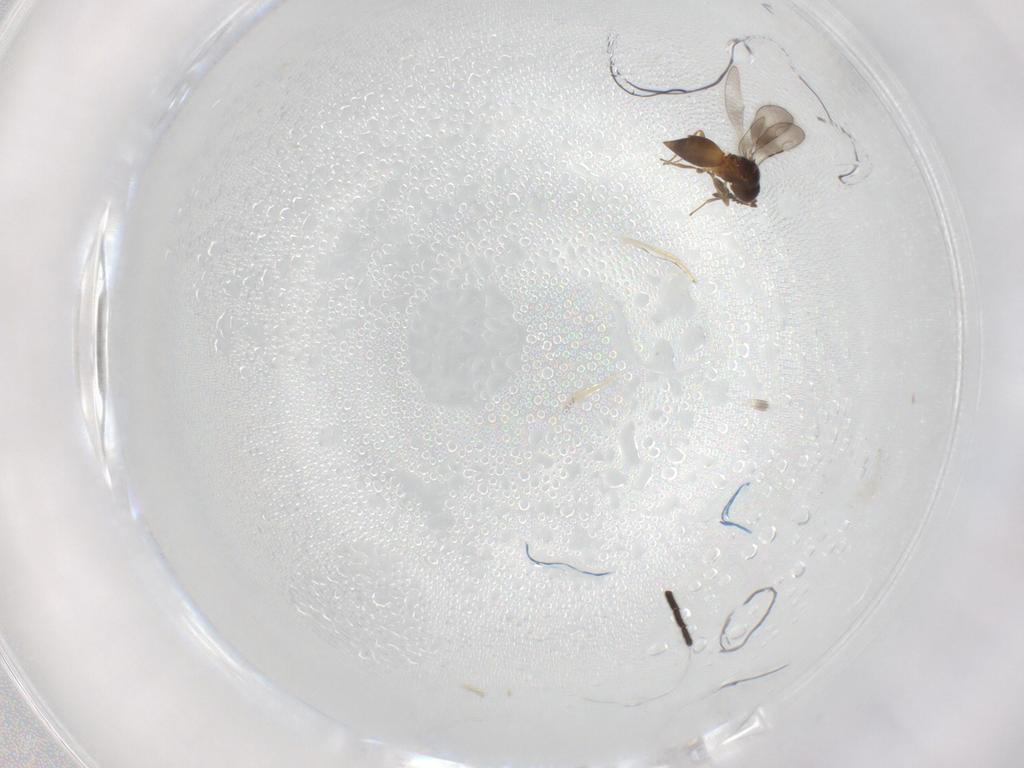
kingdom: Animalia
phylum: Arthropoda
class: Insecta
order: Hymenoptera
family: Ceraphronidae
